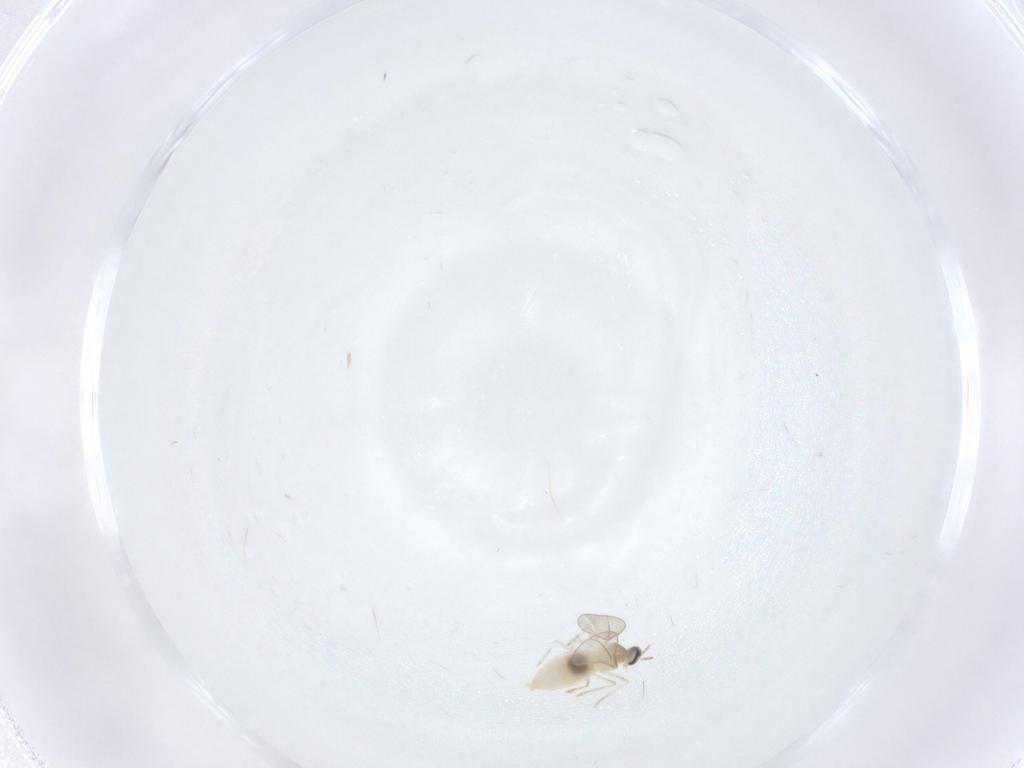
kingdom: Animalia
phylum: Arthropoda
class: Insecta
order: Diptera
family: Cecidomyiidae
